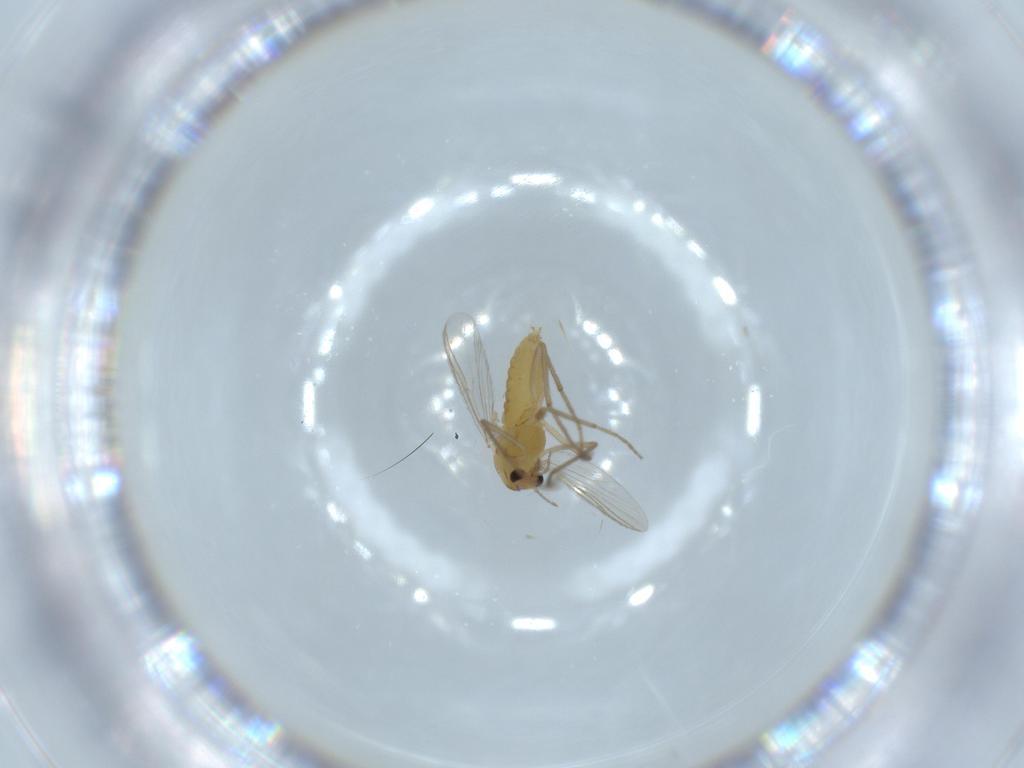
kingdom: Animalia
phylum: Arthropoda
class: Insecta
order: Diptera
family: Chironomidae
